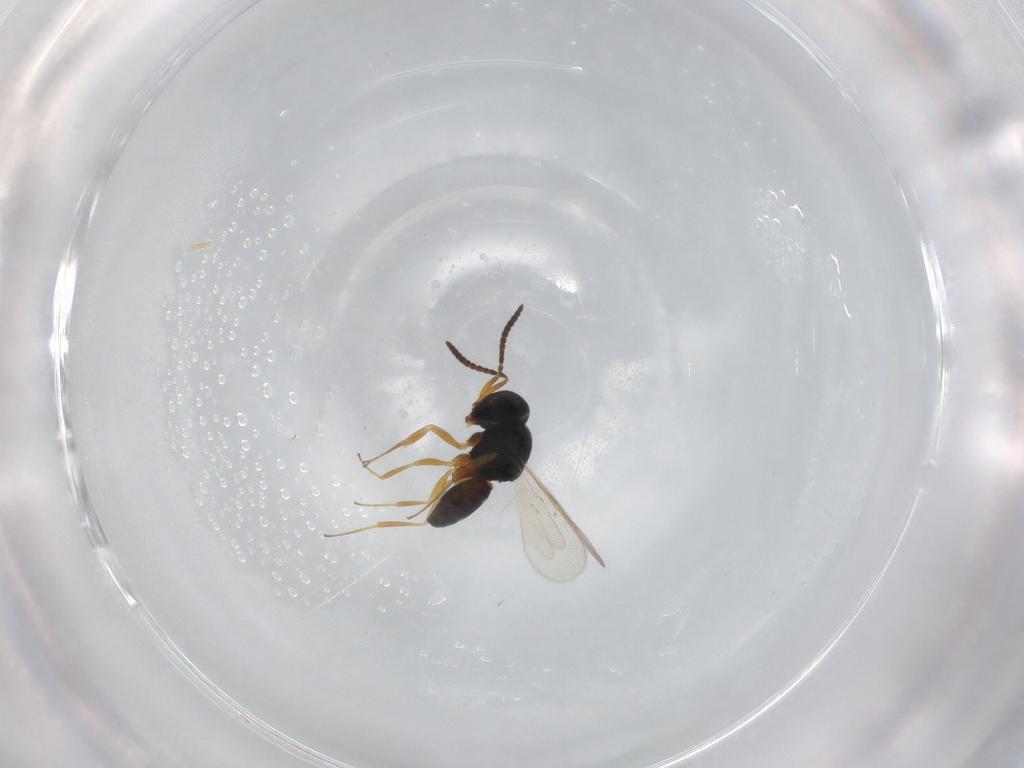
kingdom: Animalia
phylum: Arthropoda
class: Insecta
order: Hymenoptera
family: Scelionidae
